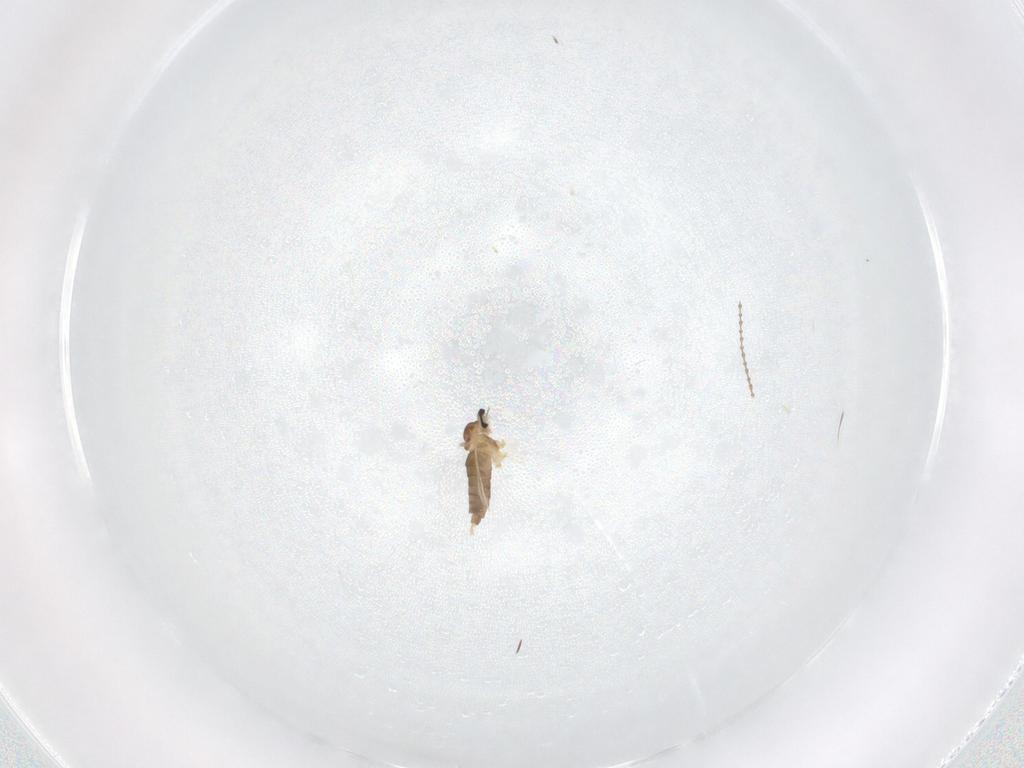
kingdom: Animalia
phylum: Arthropoda
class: Insecta
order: Diptera
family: Cecidomyiidae
